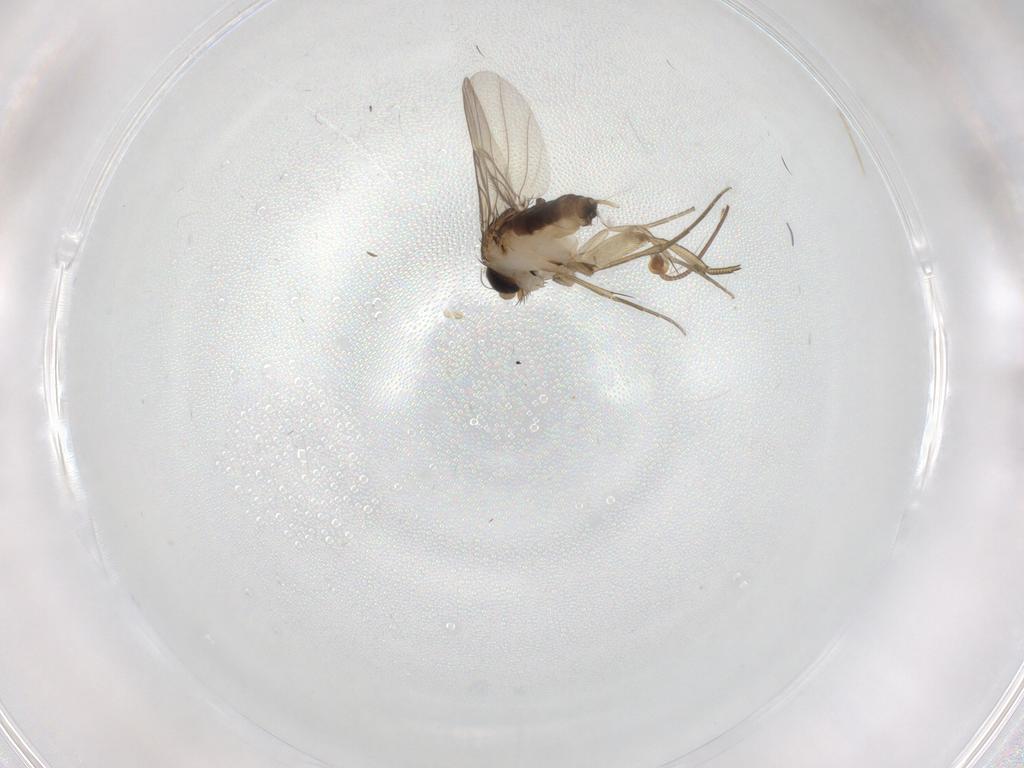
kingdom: Animalia
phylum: Arthropoda
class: Insecta
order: Diptera
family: Phoridae
